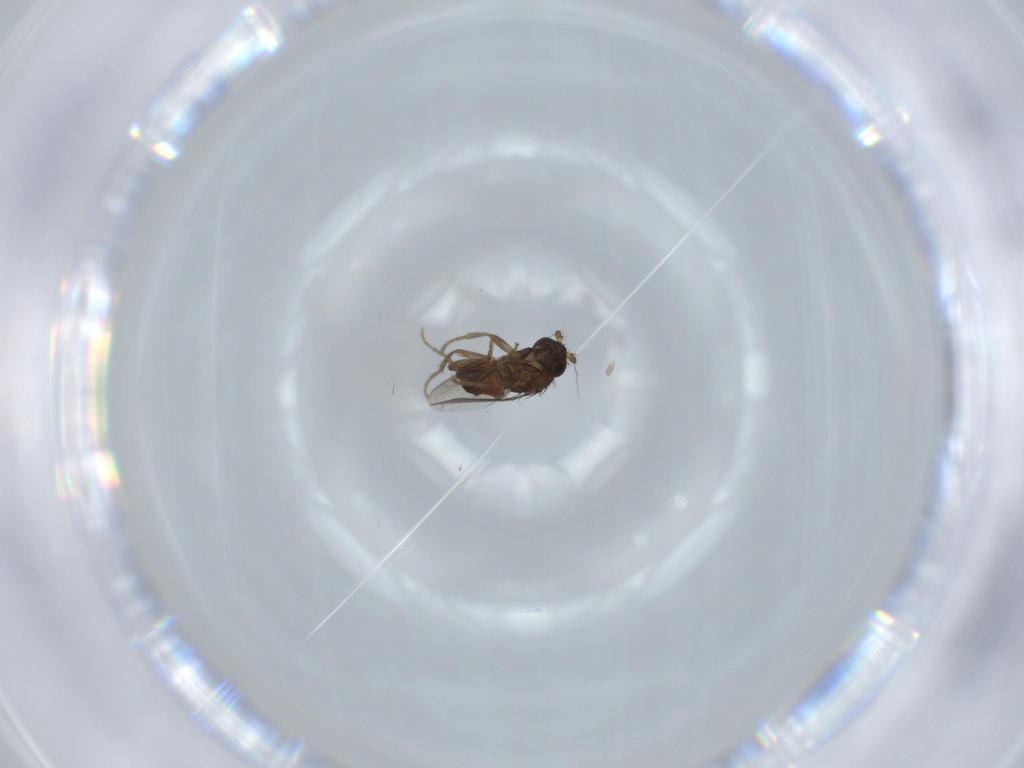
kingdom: Animalia
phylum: Arthropoda
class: Insecta
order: Diptera
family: Sphaeroceridae
